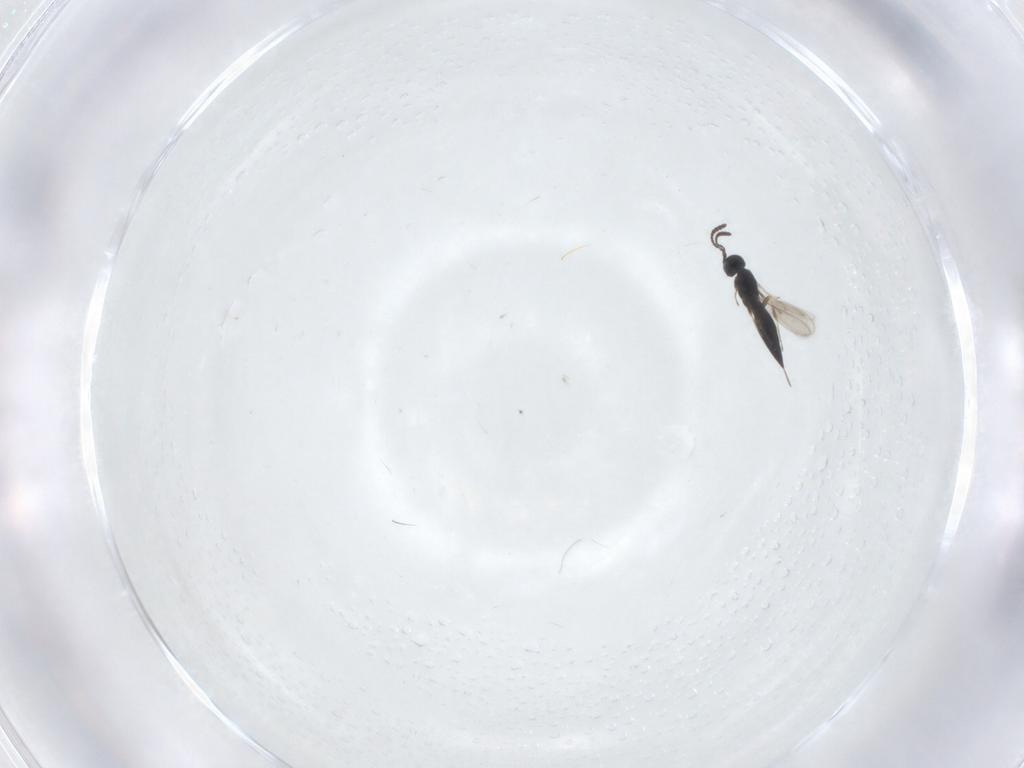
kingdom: Animalia
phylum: Arthropoda
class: Insecta
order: Hymenoptera
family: Scelionidae
